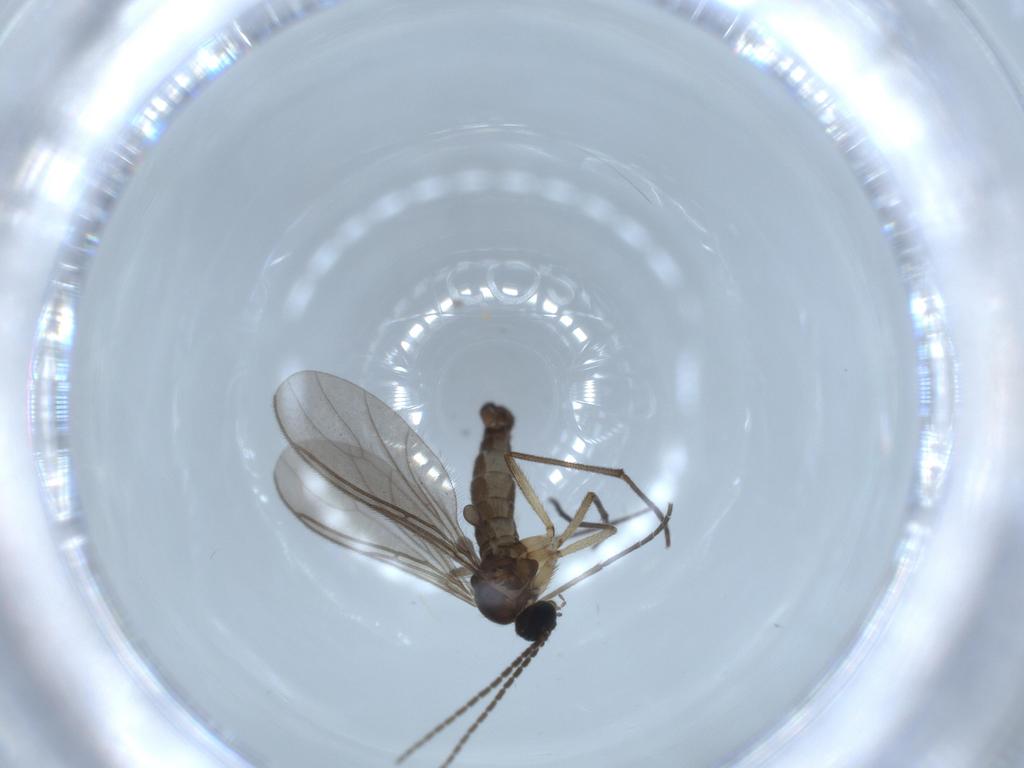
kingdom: Animalia
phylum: Arthropoda
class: Insecta
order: Diptera
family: Sciaridae
